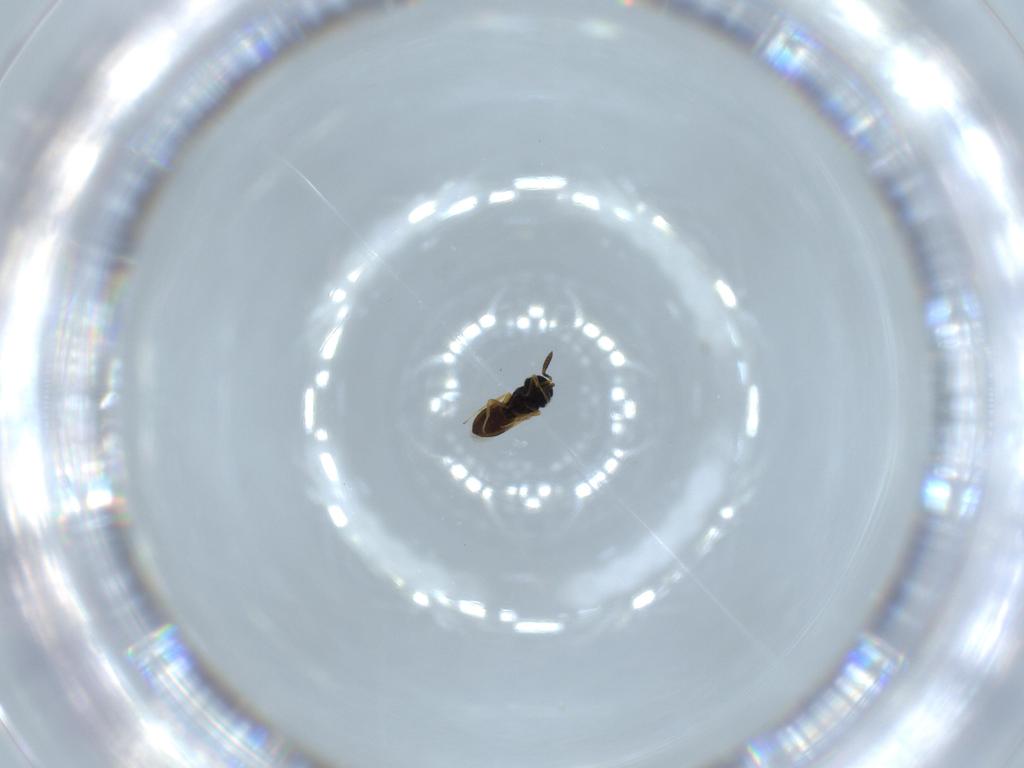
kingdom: Animalia
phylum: Arthropoda
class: Insecta
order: Hymenoptera
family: Scelionidae
